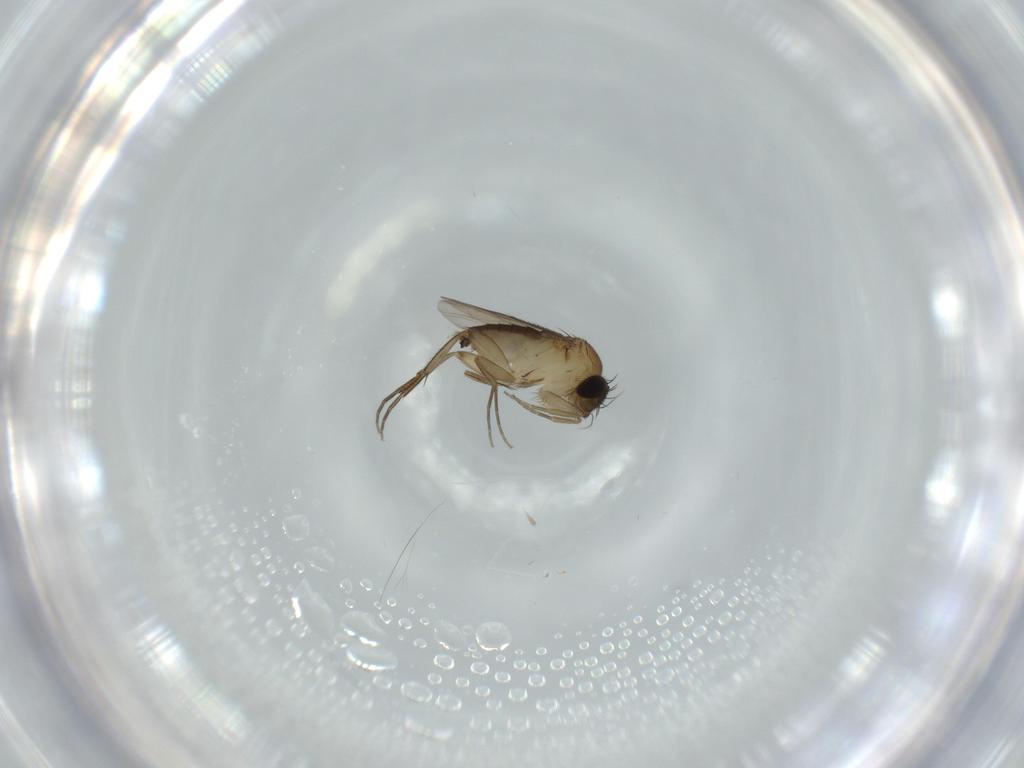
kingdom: Animalia
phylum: Arthropoda
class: Insecta
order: Diptera
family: Phoridae
